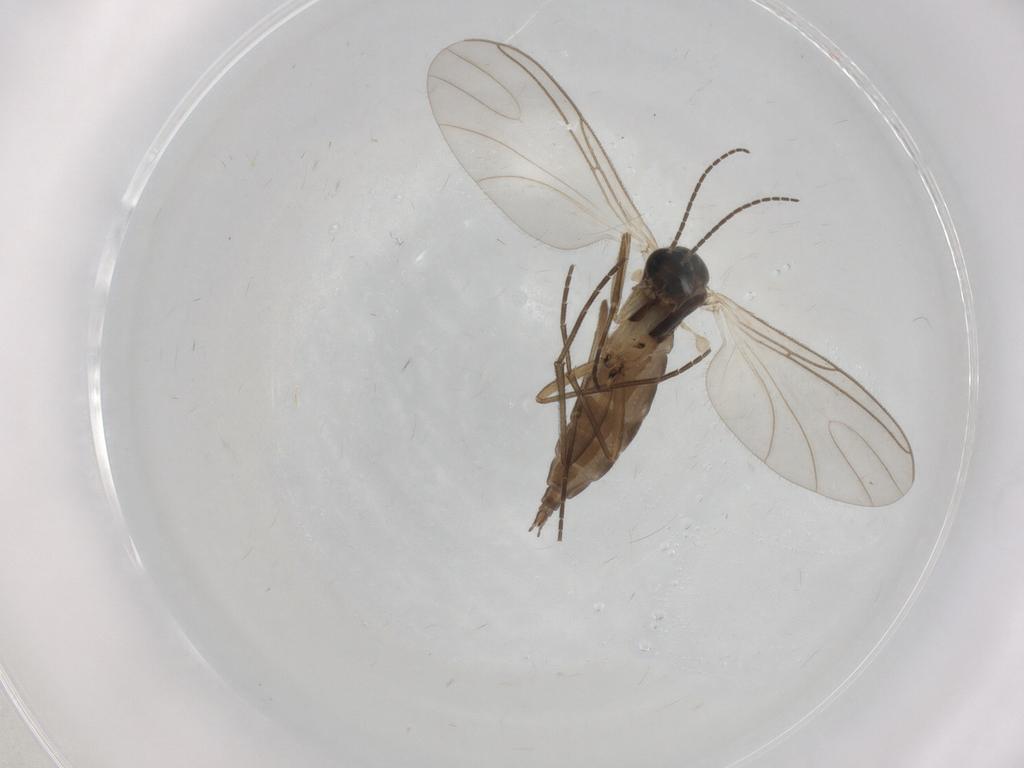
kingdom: Animalia
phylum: Arthropoda
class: Insecta
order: Diptera
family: Sciaridae
